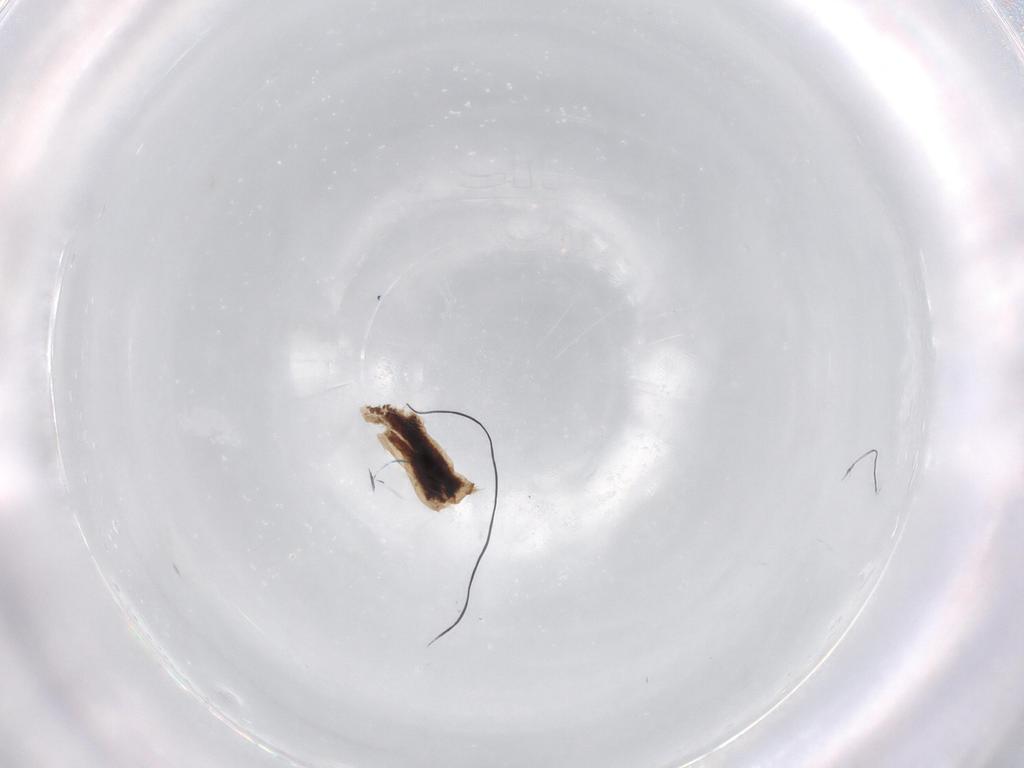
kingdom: Animalia
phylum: Arthropoda
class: Insecta
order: Diptera
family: Ceratopogonidae
